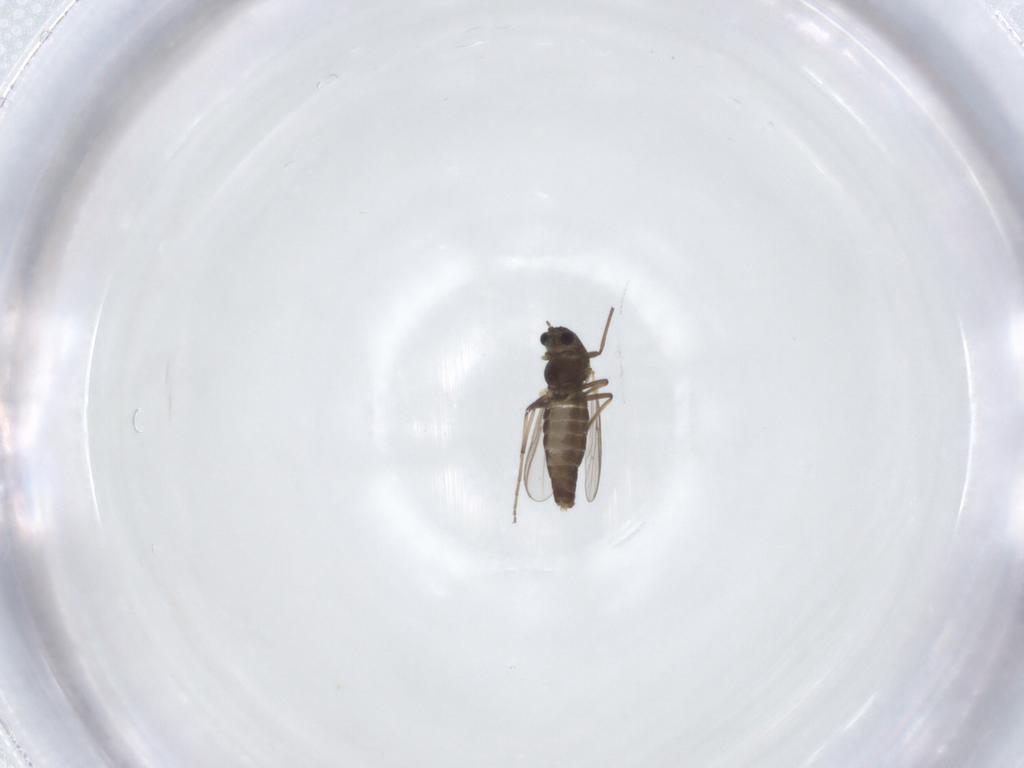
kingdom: Animalia
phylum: Arthropoda
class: Insecta
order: Diptera
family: Chironomidae
